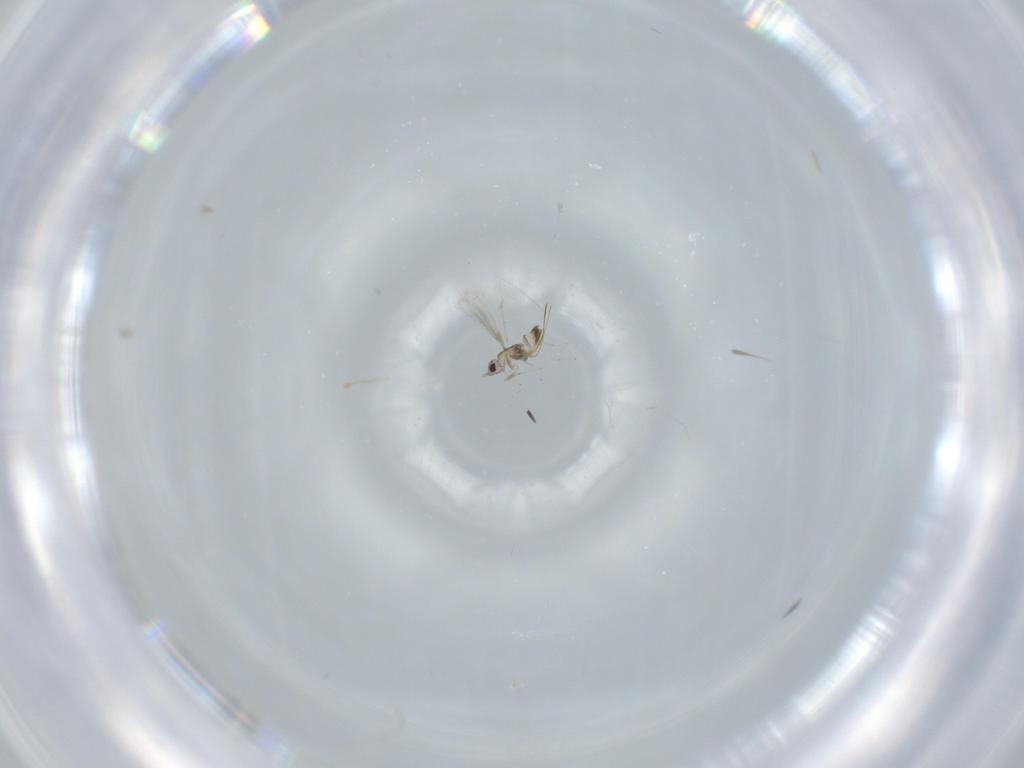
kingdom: Animalia
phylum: Arthropoda
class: Insecta
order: Hymenoptera
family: Mymaridae
